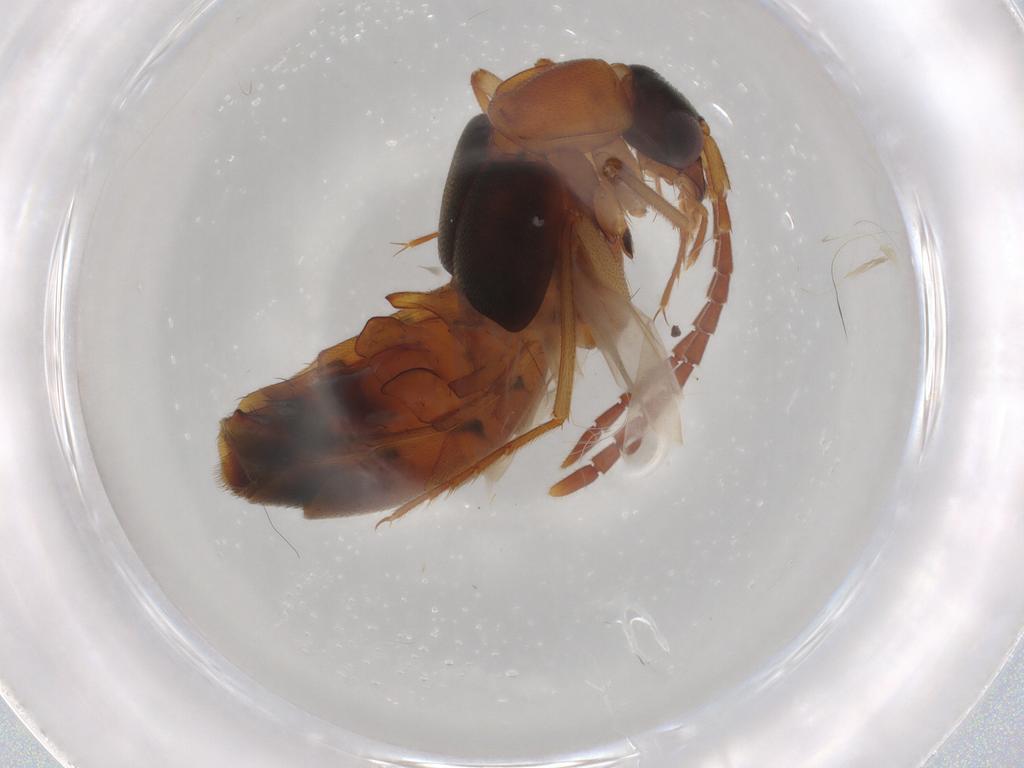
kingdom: Animalia
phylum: Arthropoda
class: Insecta
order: Coleoptera
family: Staphylinidae
